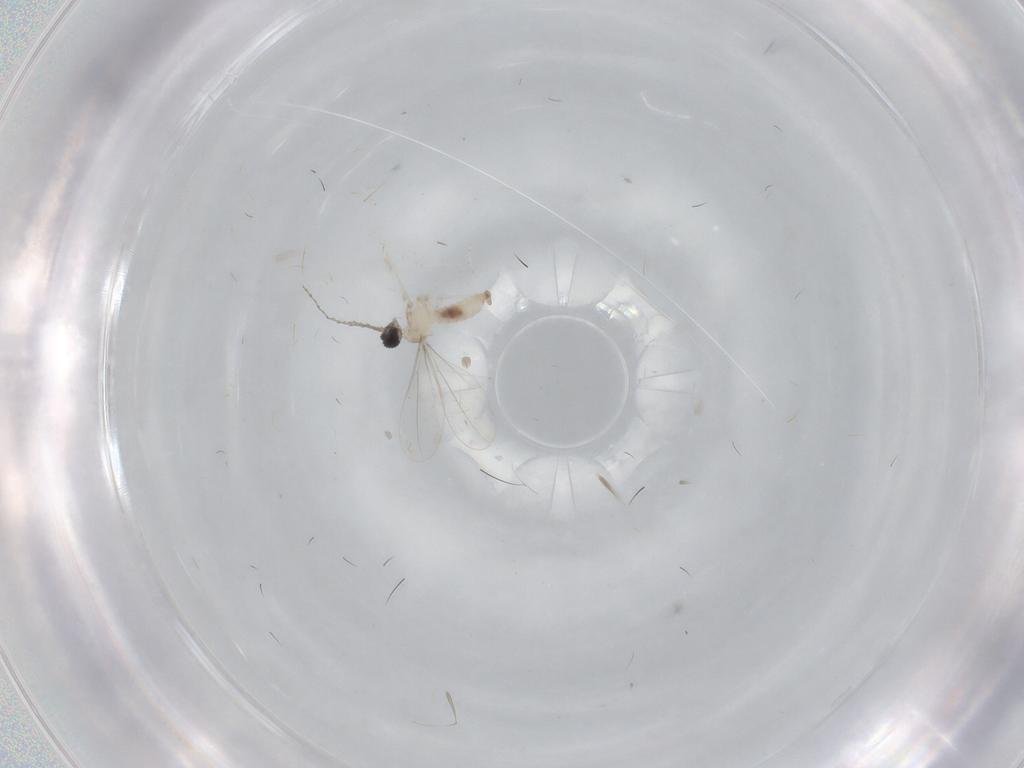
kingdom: Animalia
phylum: Arthropoda
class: Insecta
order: Diptera
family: Cecidomyiidae
